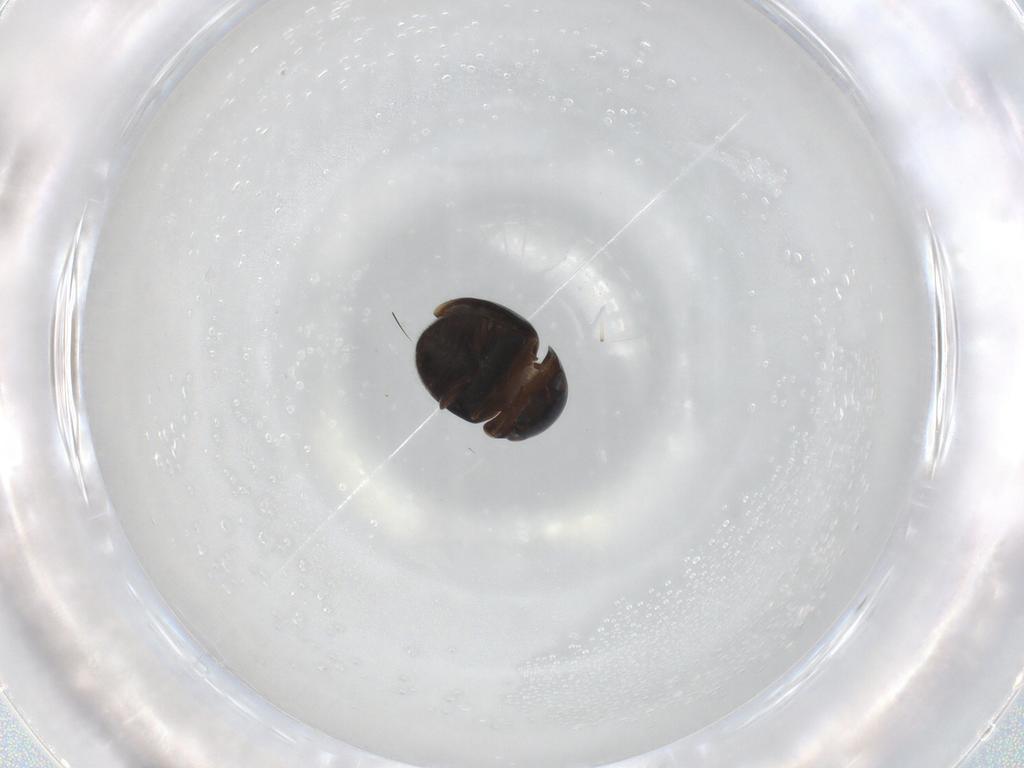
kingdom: Animalia
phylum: Arthropoda
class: Insecta
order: Coleoptera
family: Cybocephalidae
